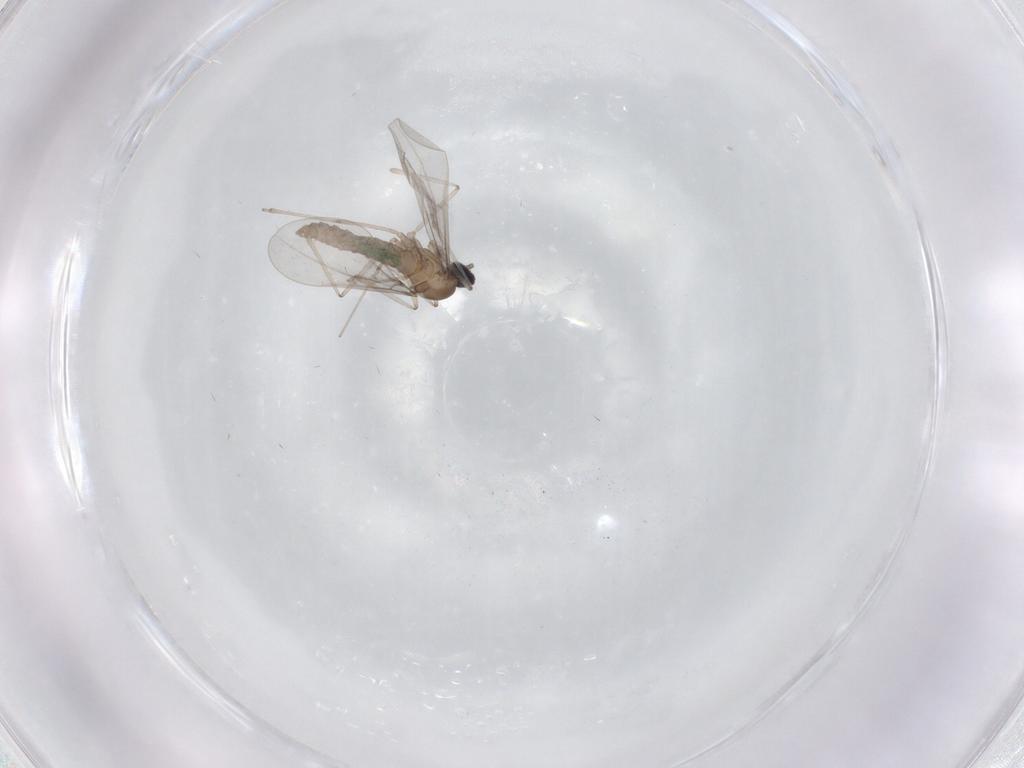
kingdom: Animalia
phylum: Arthropoda
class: Insecta
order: Diptera
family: Cecidomyiidae
